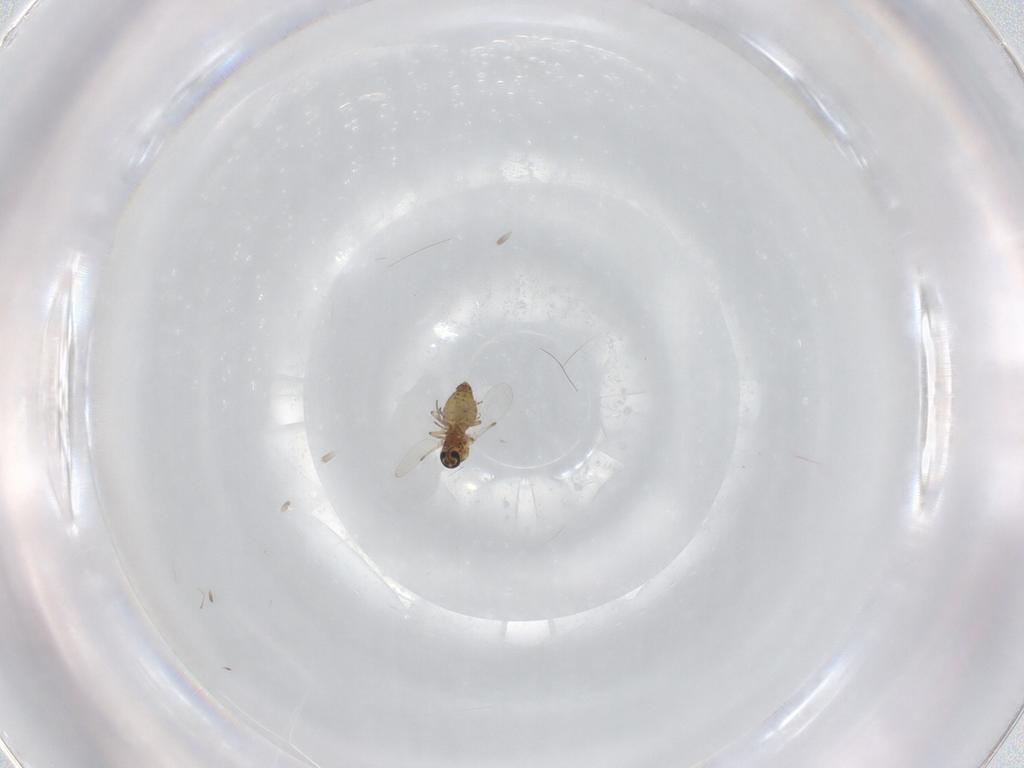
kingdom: Animalia
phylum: Arthropoda
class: Insecta
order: Diptera
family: Ceratopogonidae
